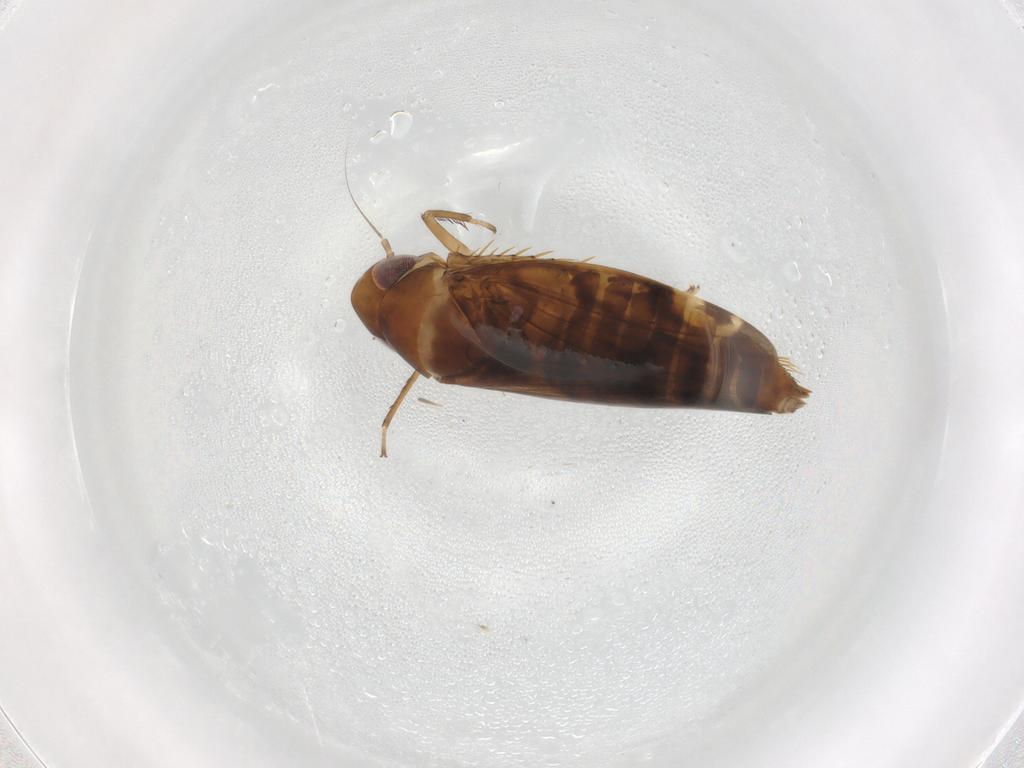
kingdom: Animalia
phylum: Arthropoda
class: Insecta
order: Hemiptera
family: Cicadellidae
